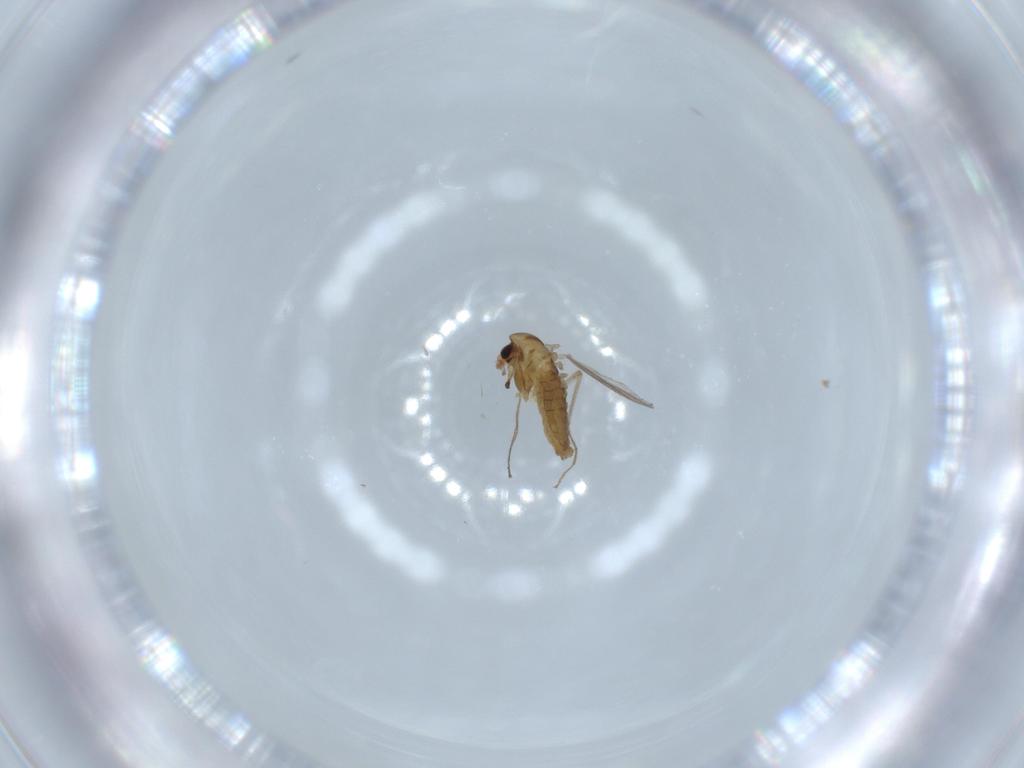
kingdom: Animalia
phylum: Arthropoda
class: Insecta
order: Diptera
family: Chironomidae
